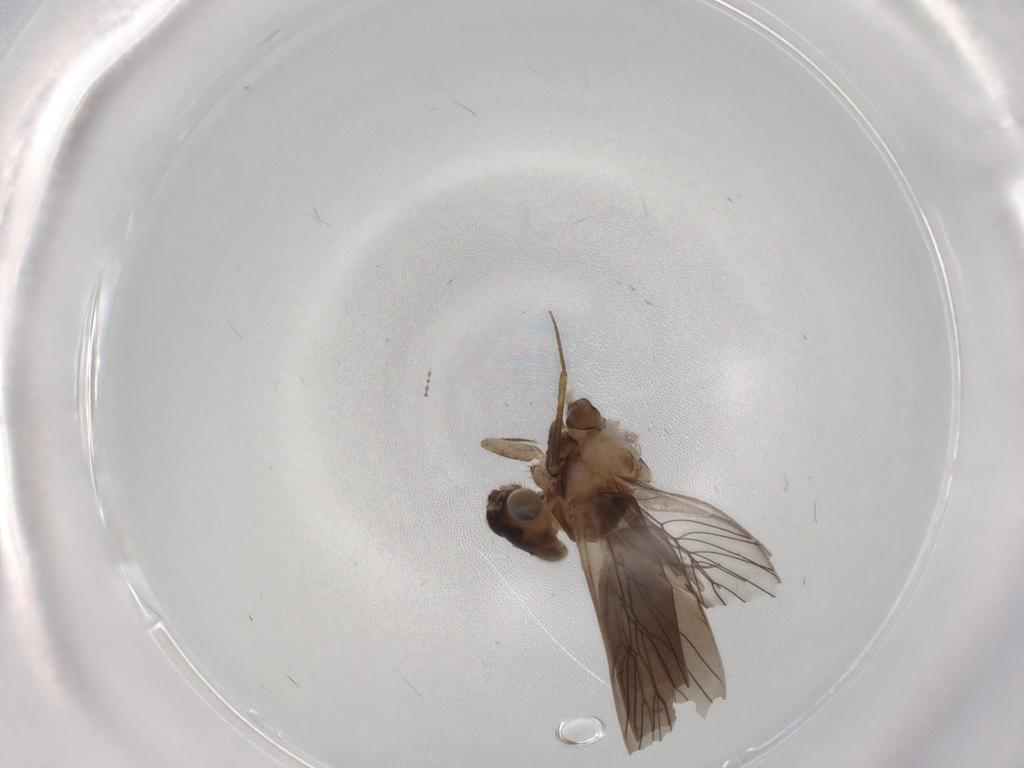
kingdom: Animalia
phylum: Arthropoda
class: Insecta
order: Psocodea
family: Lepidopsocidae
